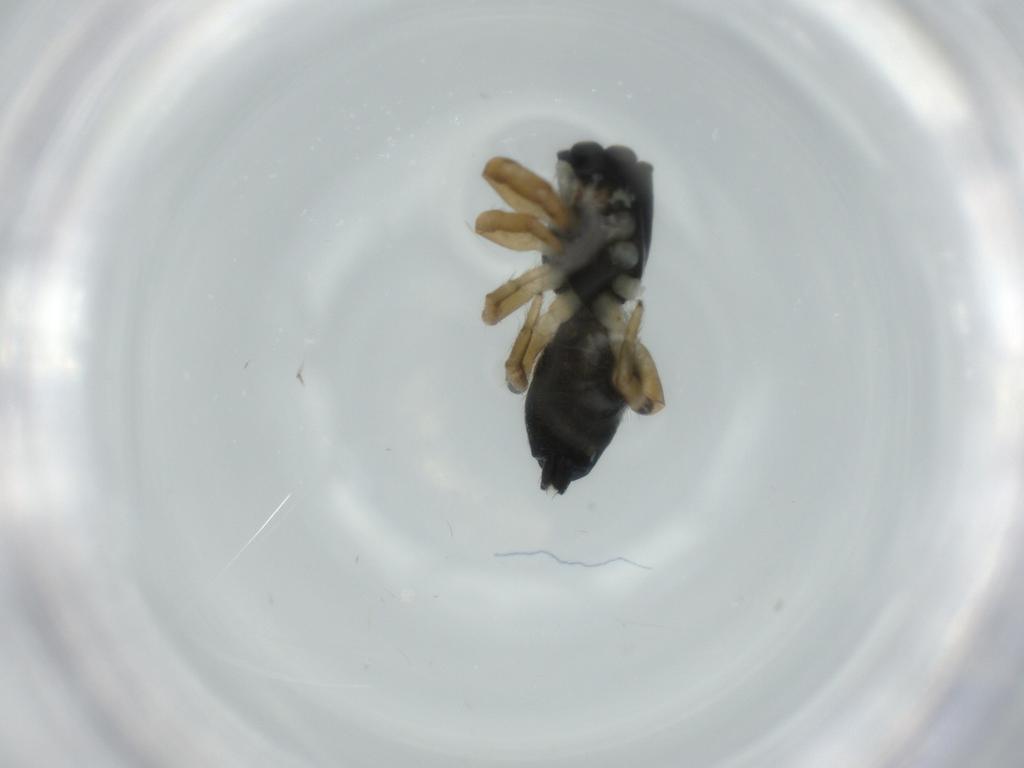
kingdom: Animalia
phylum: Arthropoda
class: Arachnida
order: Araneae
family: Salticidae
